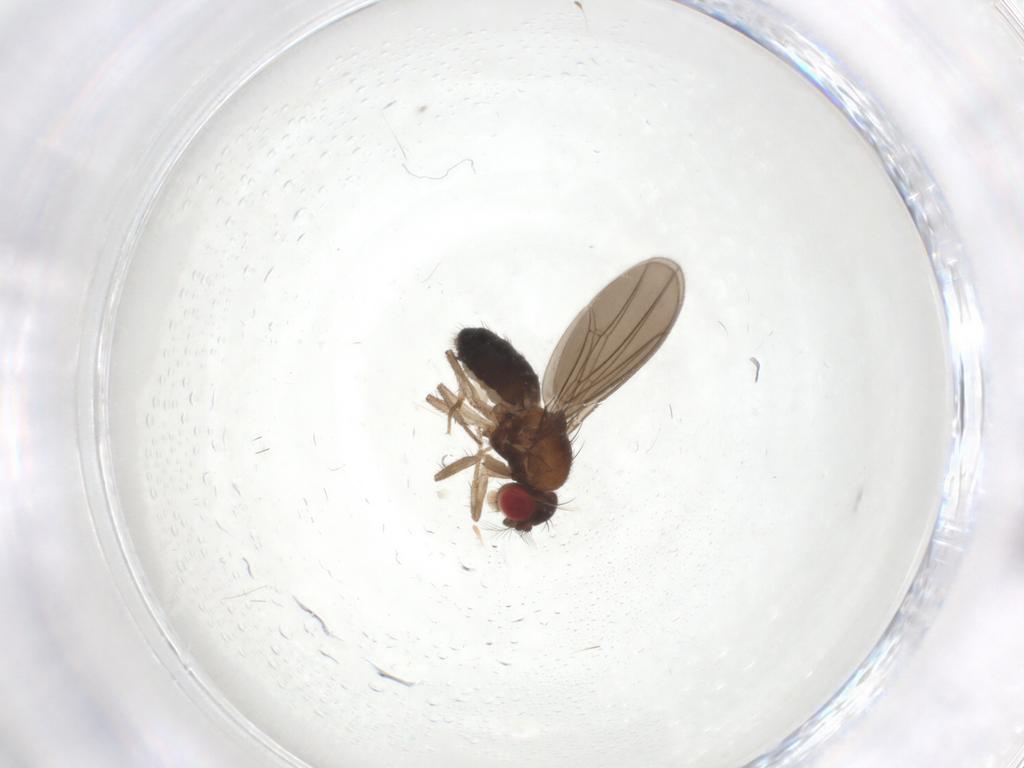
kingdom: Animalia
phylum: Arthropoda
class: Insecta
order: Diptera
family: Drosophilidae
